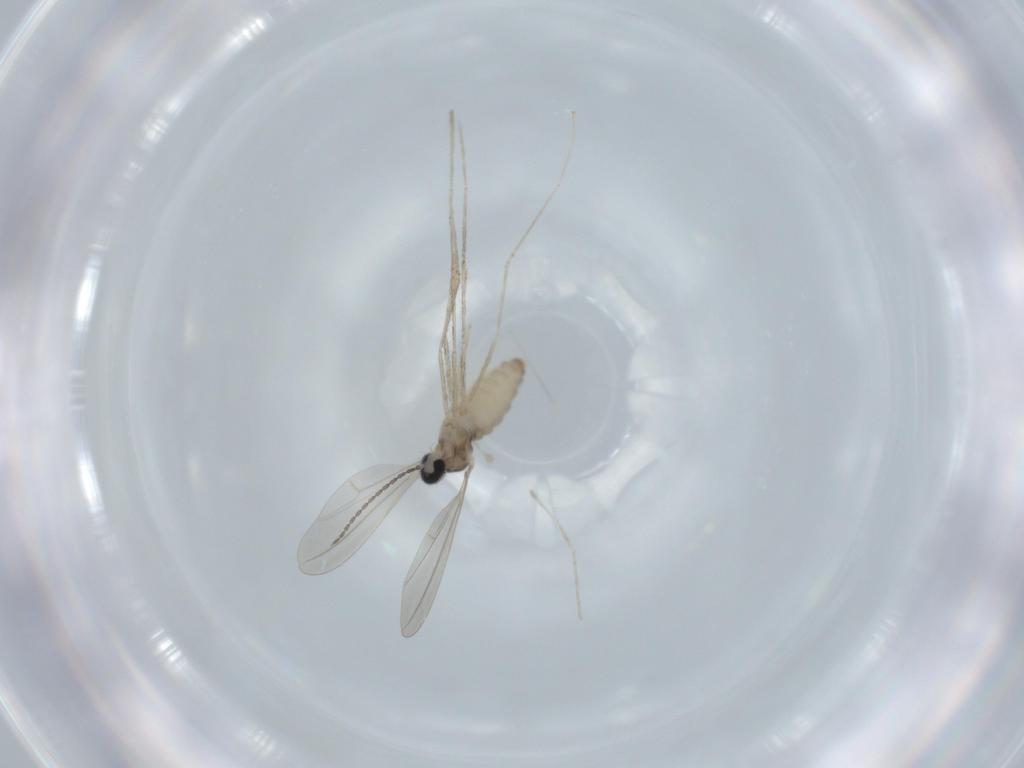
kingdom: Animalia
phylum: Arthropoda
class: Insecta
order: Diptera
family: Cecidomyiidae
